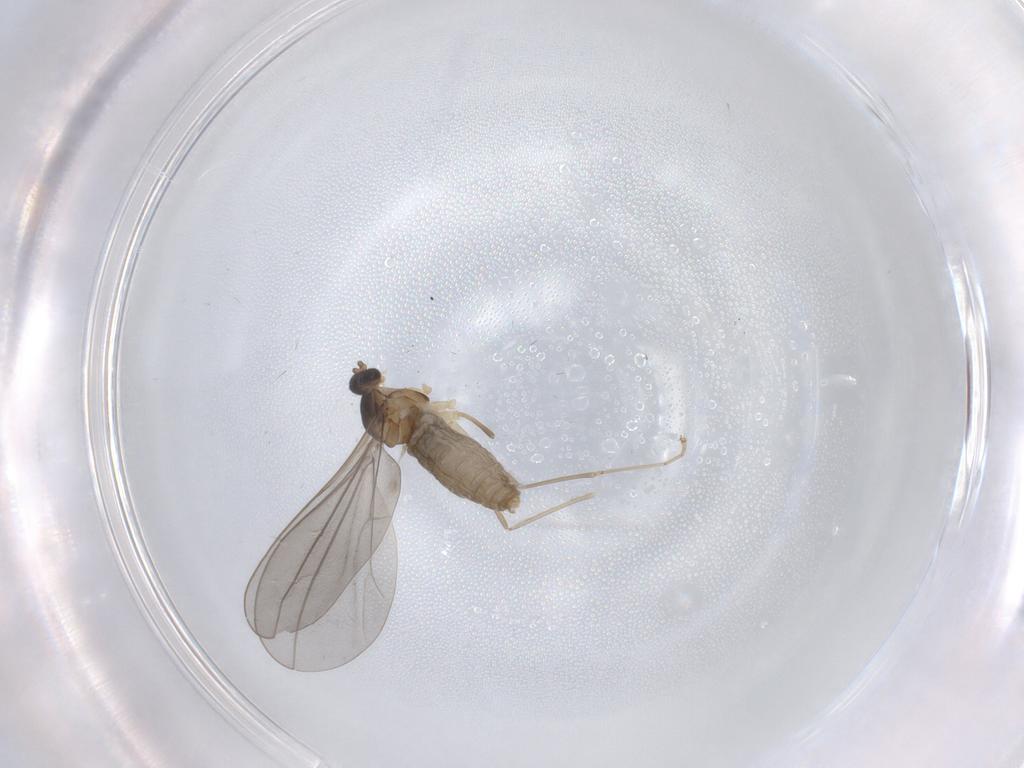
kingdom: Animalia
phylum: Arthropoda
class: Insecta
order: Diptera
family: Cecidomyiidae
